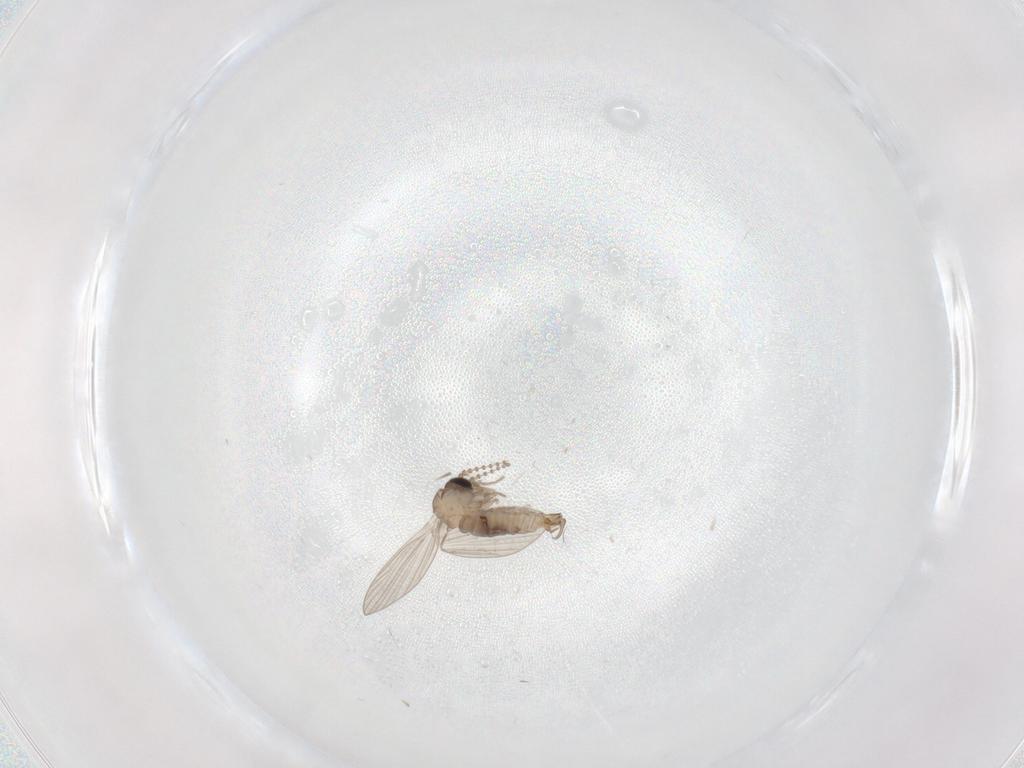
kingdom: Animalia
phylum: Arthropoda
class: Insecta
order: Diptera
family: Psychodidae
